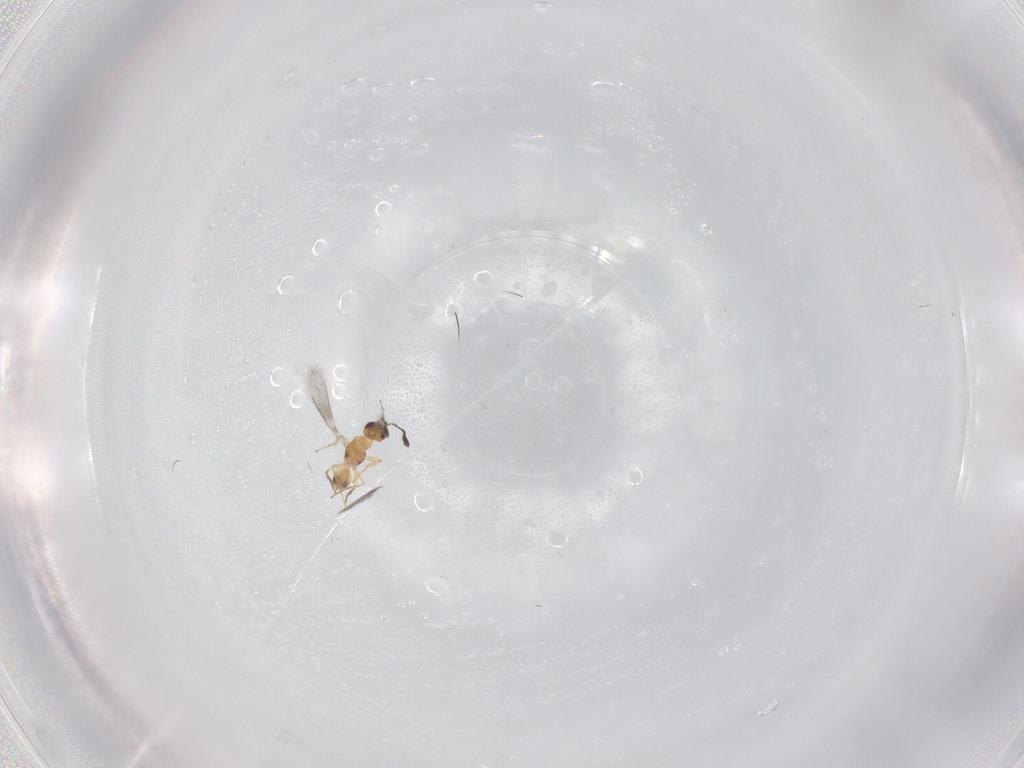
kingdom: Animalia
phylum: Arthropoda
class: Insecta
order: Hymenoptera
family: Mymaridae
